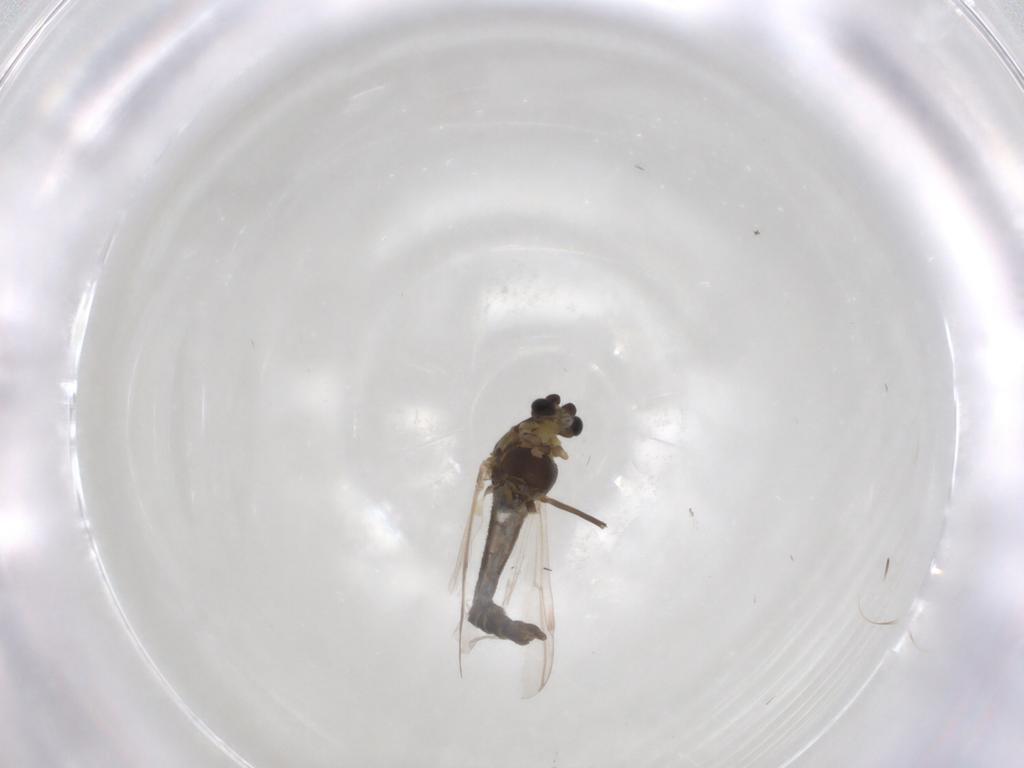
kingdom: Animalia
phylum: Arthropoda
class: Insecta
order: Diptera
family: Chironomidae
